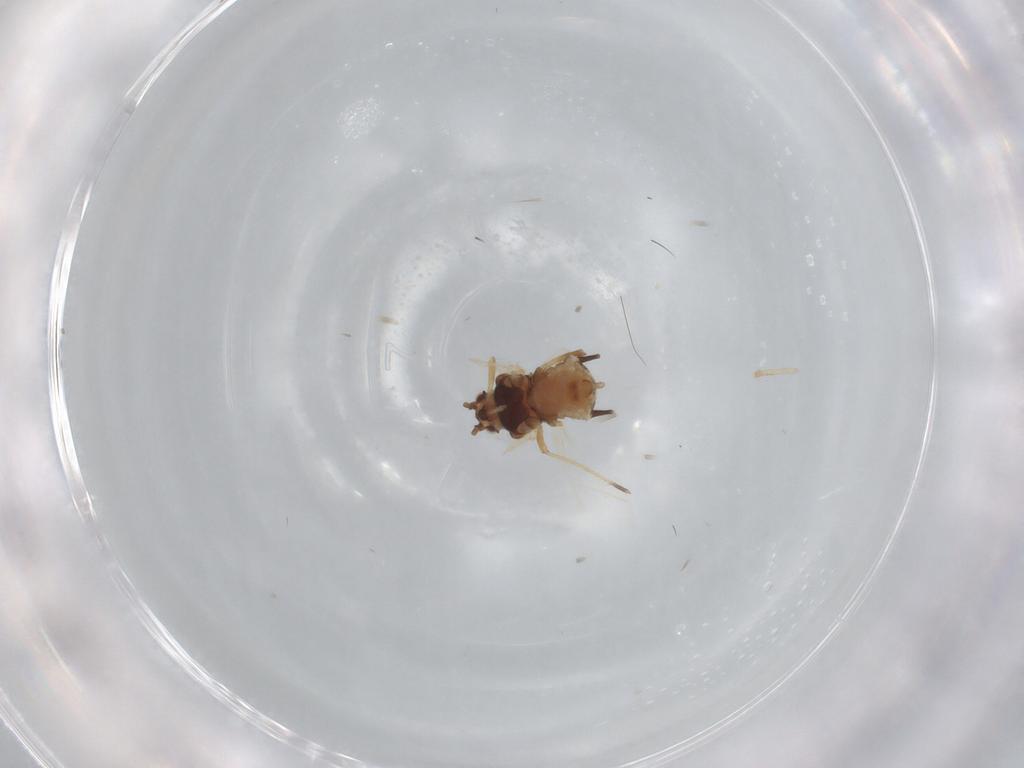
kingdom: Animalia
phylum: Arthropoda
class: Insecta
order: Hemiptera
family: Aphididae
